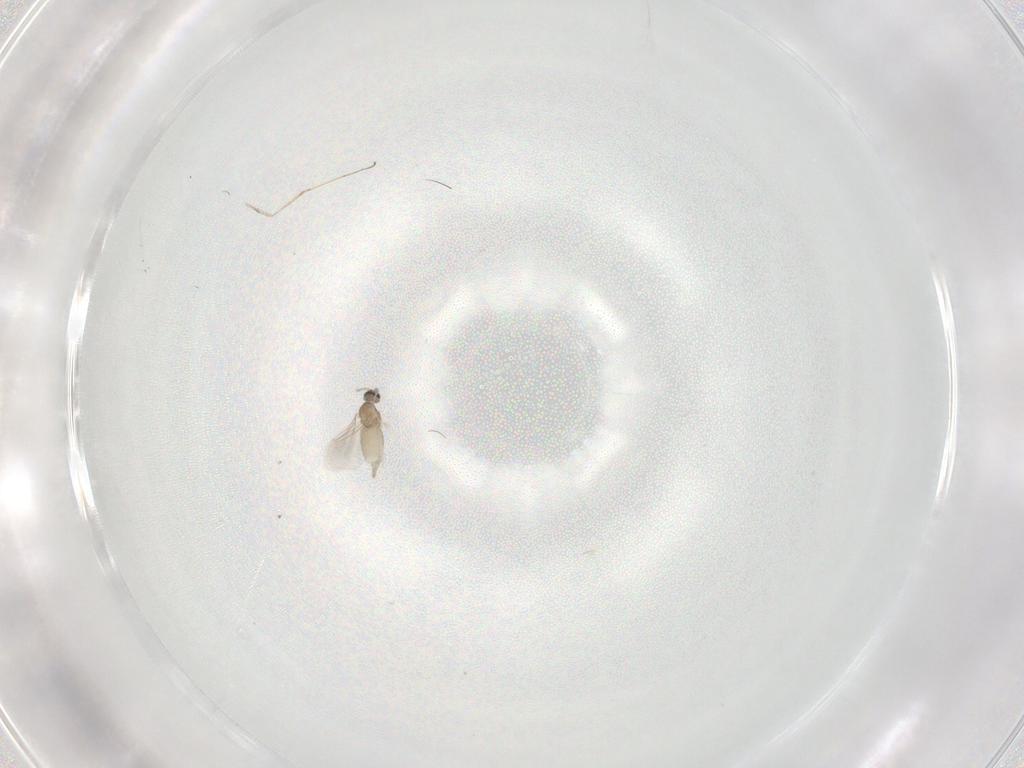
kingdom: Animalia
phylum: Arthropoda
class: Insecta
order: Diptera
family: Cecidomyiidae
